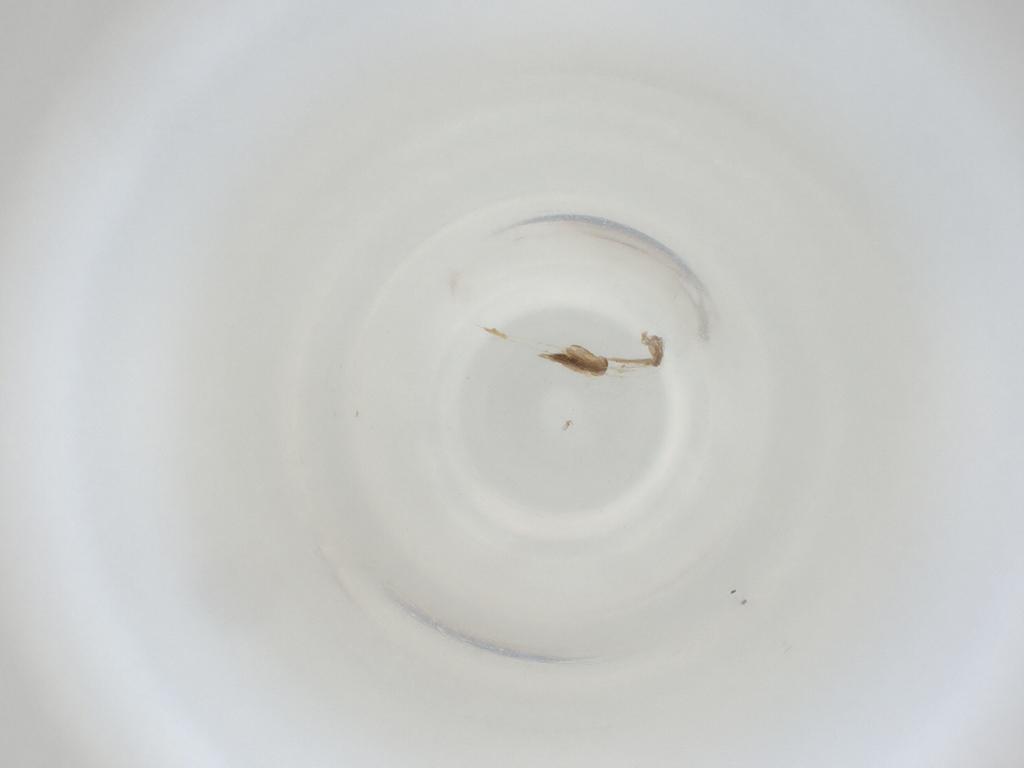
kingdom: Animalia
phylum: Arthropoda
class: Insecta
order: Diptera
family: Cecidomyiidae
